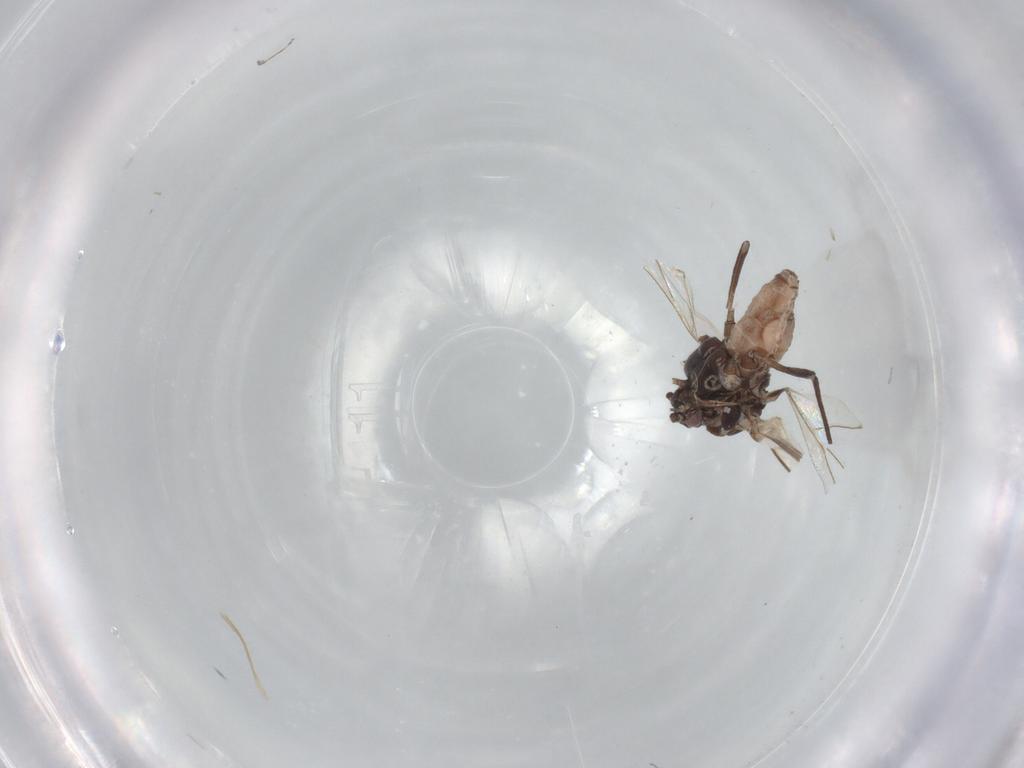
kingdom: Animalia
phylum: Arthropoda
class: Insecta
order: Hemiptera
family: Aphididae
